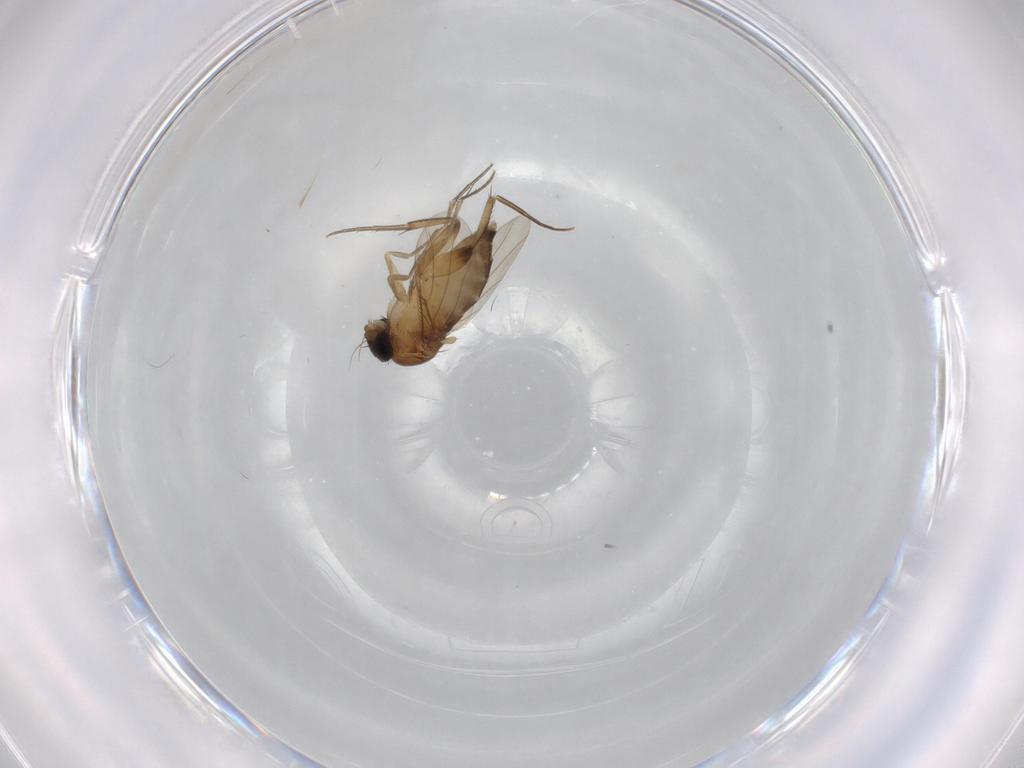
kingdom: Animalia
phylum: Arthropoda
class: Insecta
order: Diptera
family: Phoridae
